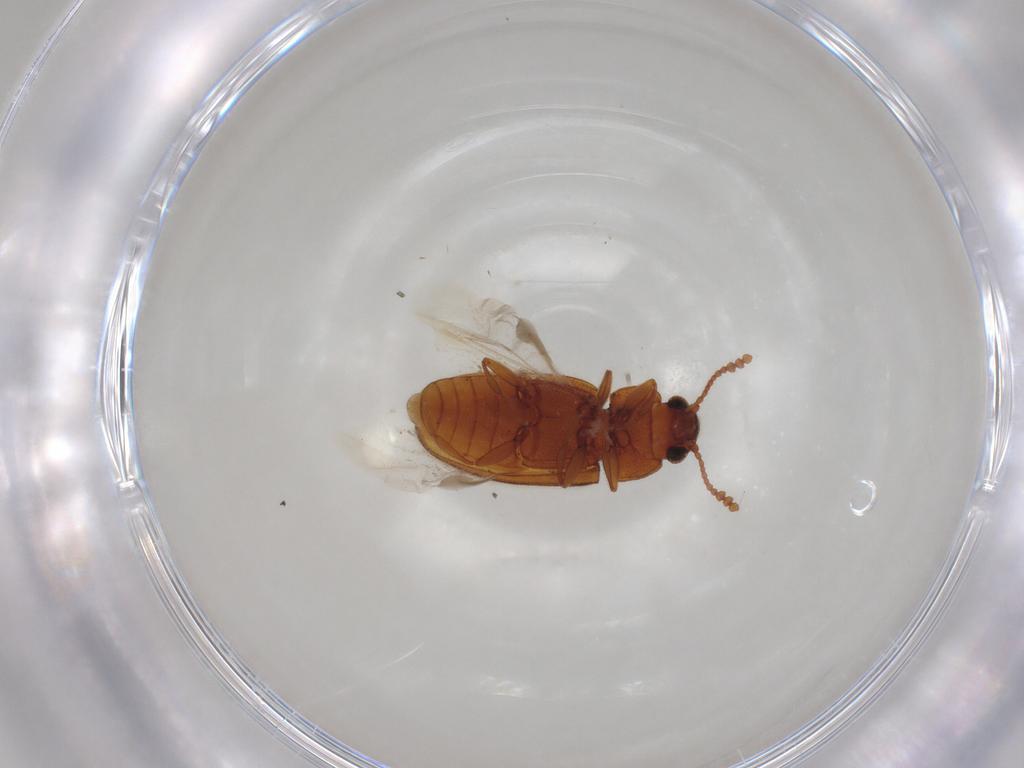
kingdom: Animalia
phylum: Arthropoda
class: Insecta
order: Coleoptera
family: Erotylidae
